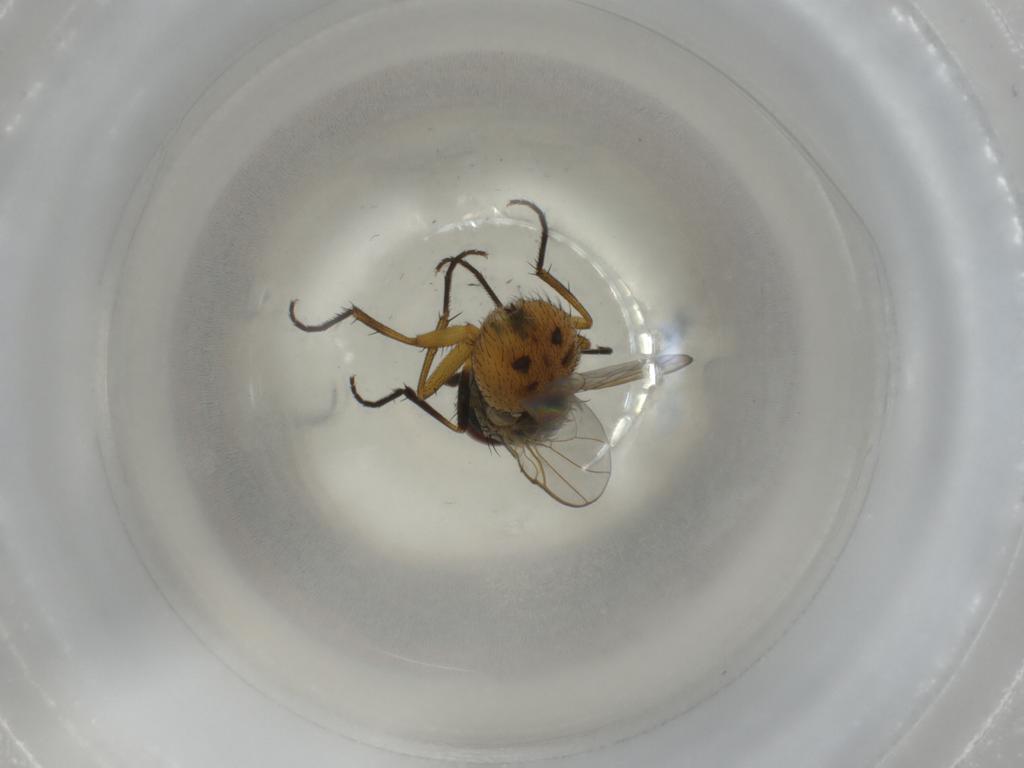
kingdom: Animalia
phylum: Arthropoda
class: Insecta
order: Diptera
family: Muscidae
